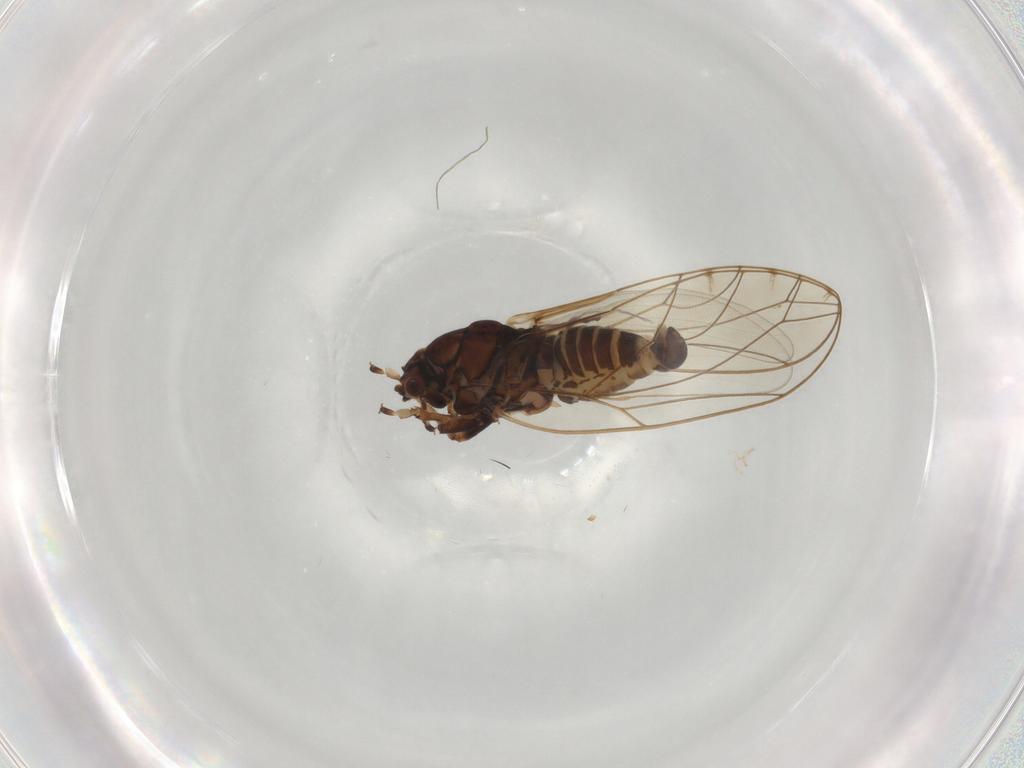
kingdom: Animalia
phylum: Arthropoda
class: Insecta
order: Hemiptera
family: Triozidae
